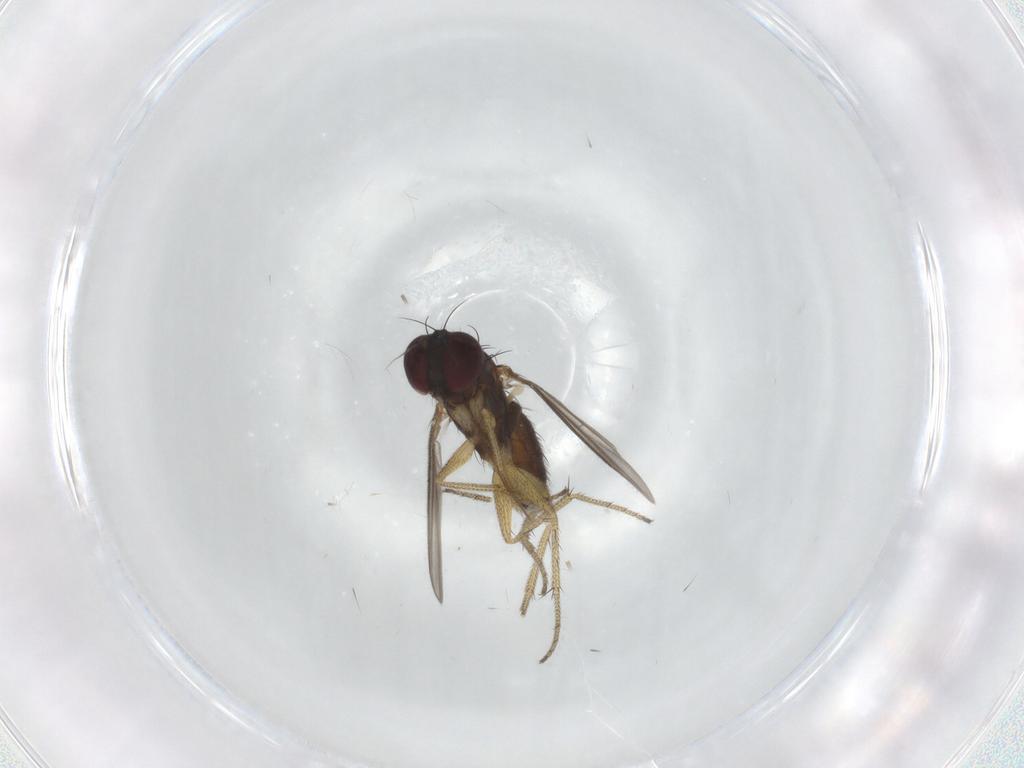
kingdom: Animalia
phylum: Arthropoda
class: Insecta
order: Diptera
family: Chironomidae
